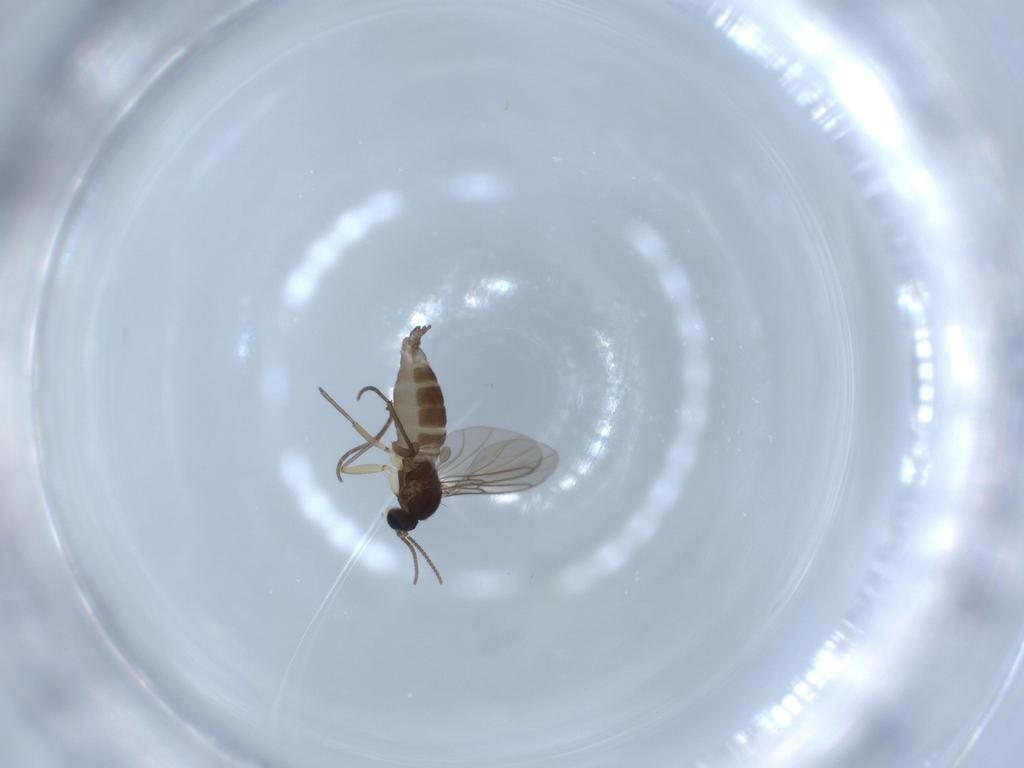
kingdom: Animalia
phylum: Arthropoda
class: Insecta
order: Diptera
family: Sciaridae
